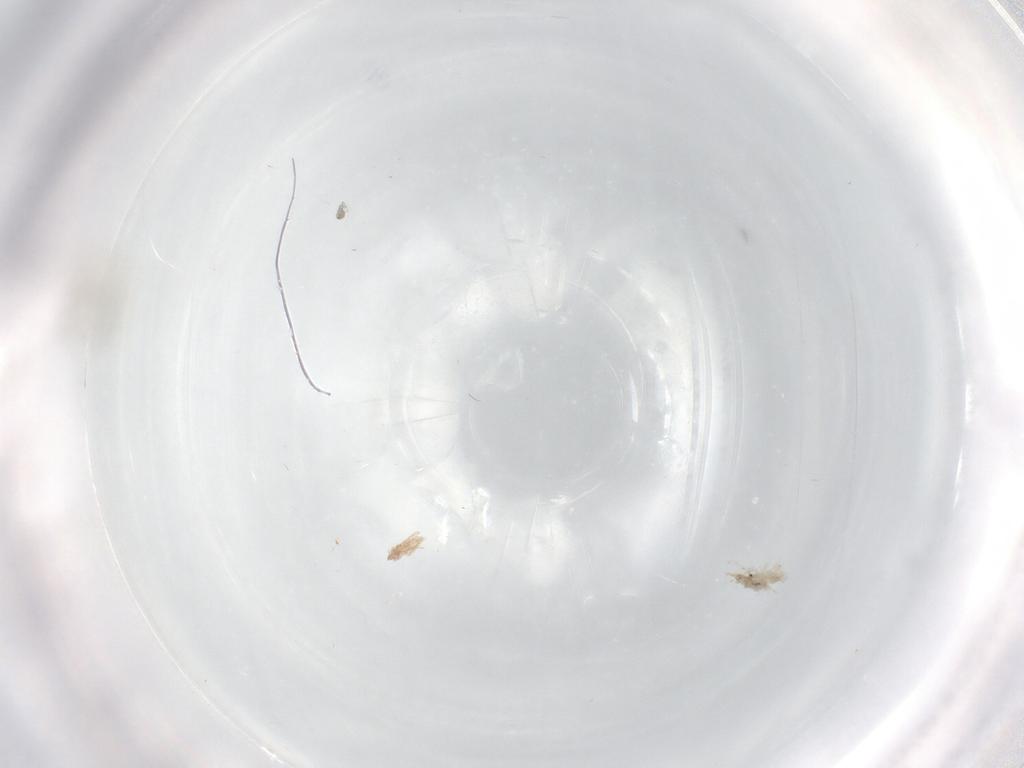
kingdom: Animalia
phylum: Arthropoda
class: Insecta
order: Diptera
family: Cecidomyiidae
